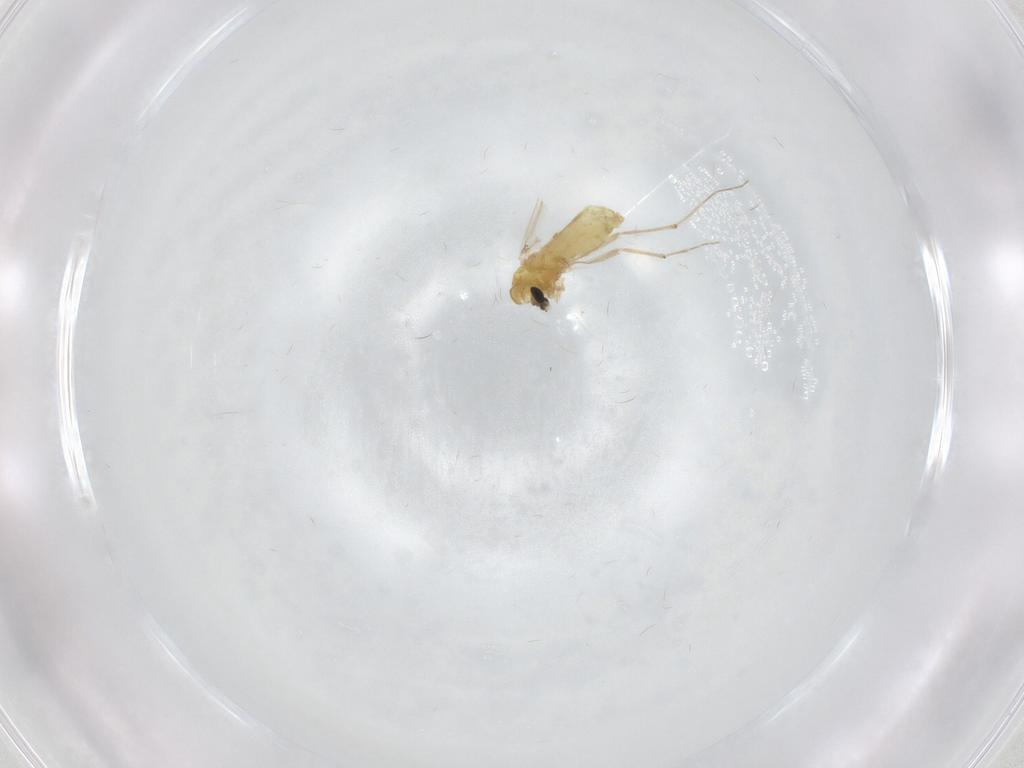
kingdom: Animalia
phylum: Arthropoda
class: Insecta
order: Diptera
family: Chironomidae
